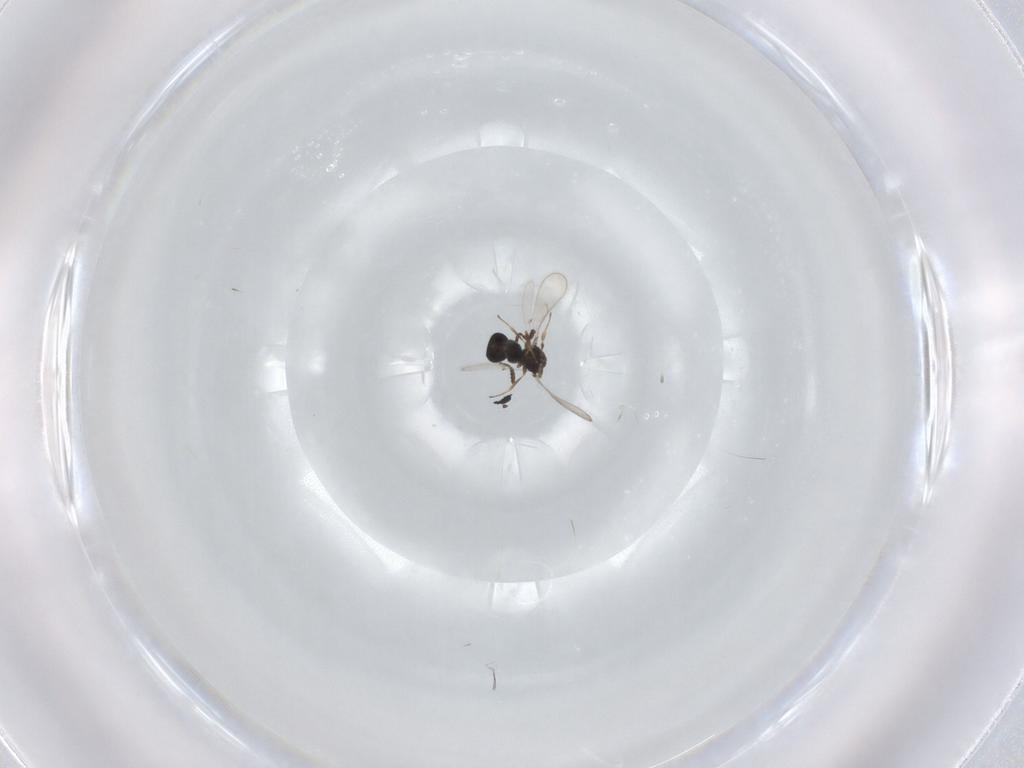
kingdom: Animalia
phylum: Arthropoda
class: Insecta
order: Hymenoptera
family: Scelionidae
